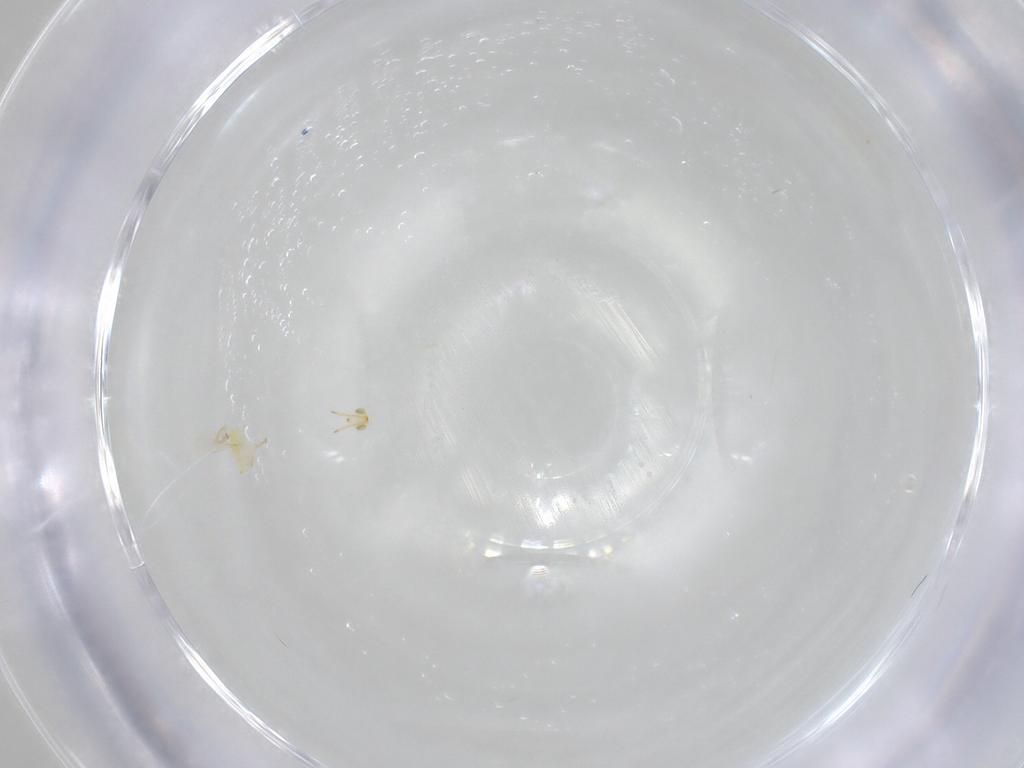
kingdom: Animalia
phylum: Arthropoda
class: Insecta
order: Hymenoptera
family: Aphelinidae
